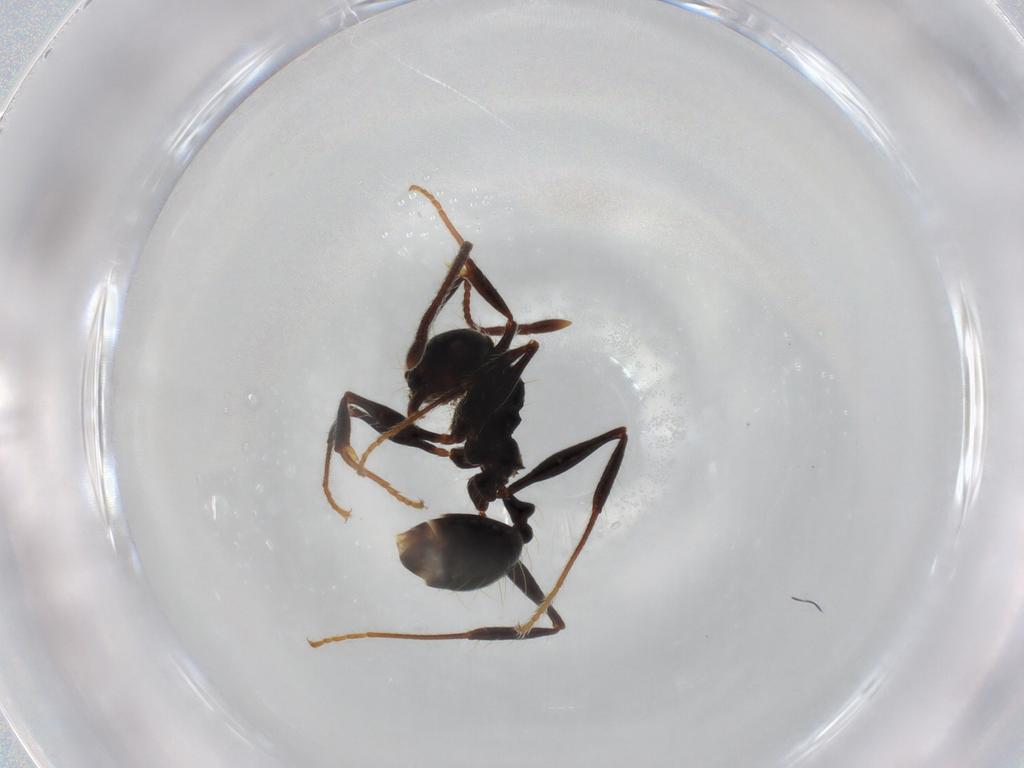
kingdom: Animalia
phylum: Arthropoda
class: Insecta
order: Hymenoptera
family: Formicidae
